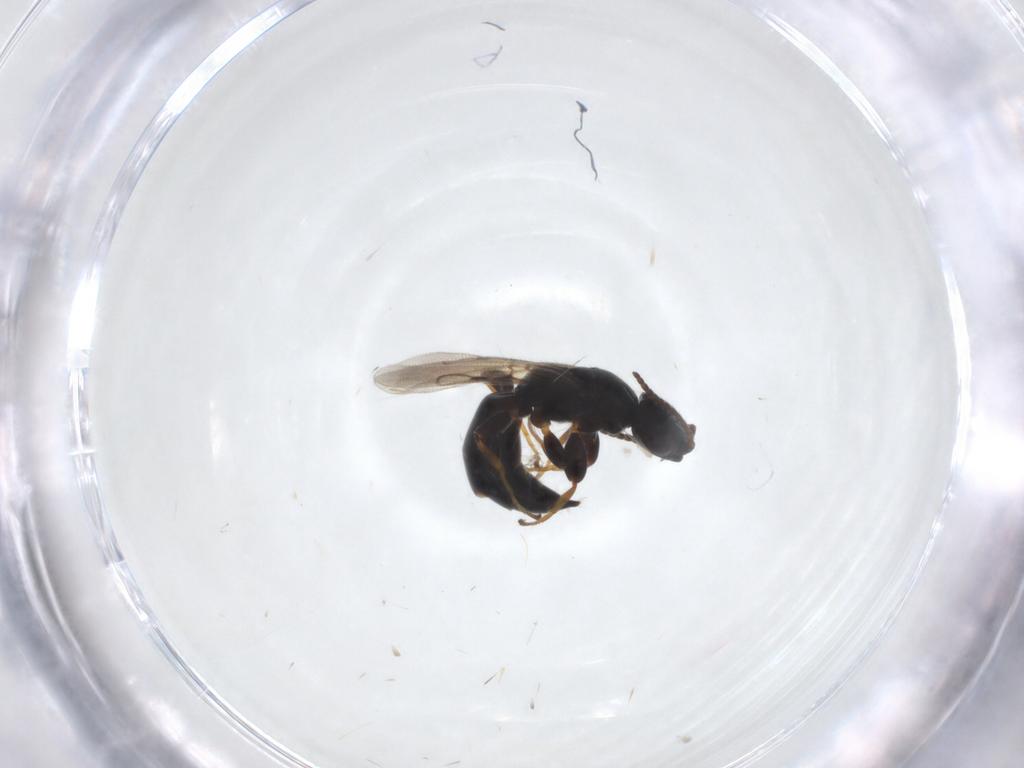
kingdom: Animalia
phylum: Arthropoda
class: Insecta
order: Hymenoptera
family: Bethylidae
